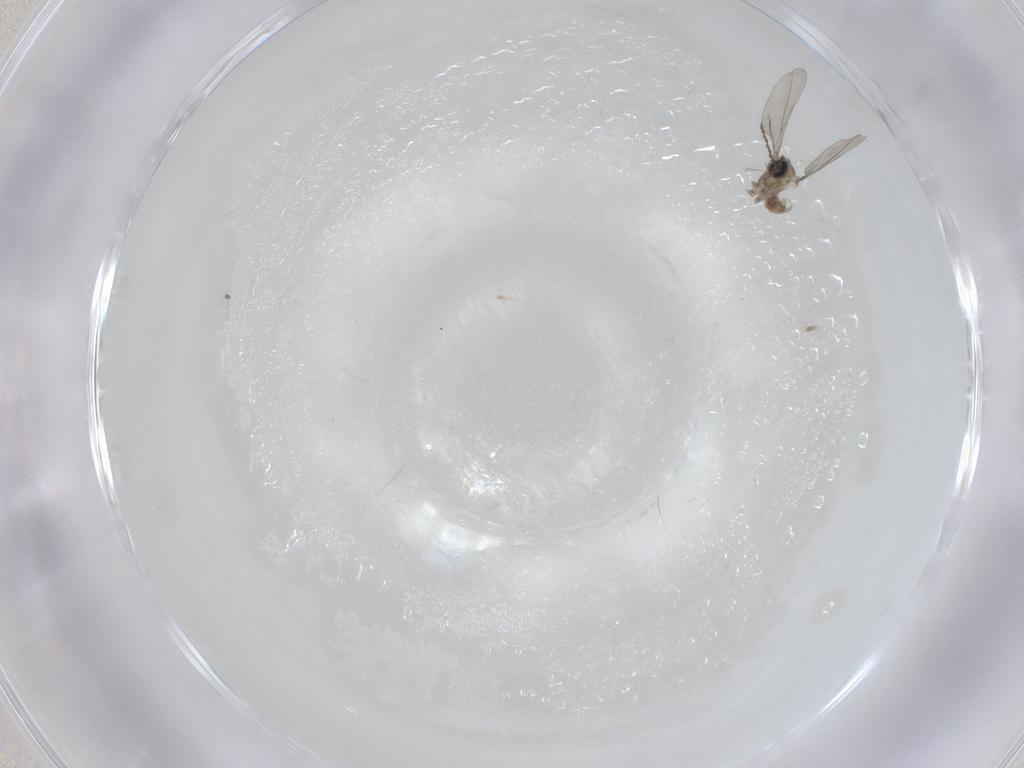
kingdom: Animalia
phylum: Arthropoda
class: Insecta
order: Diptera
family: Cecidomyiidae
